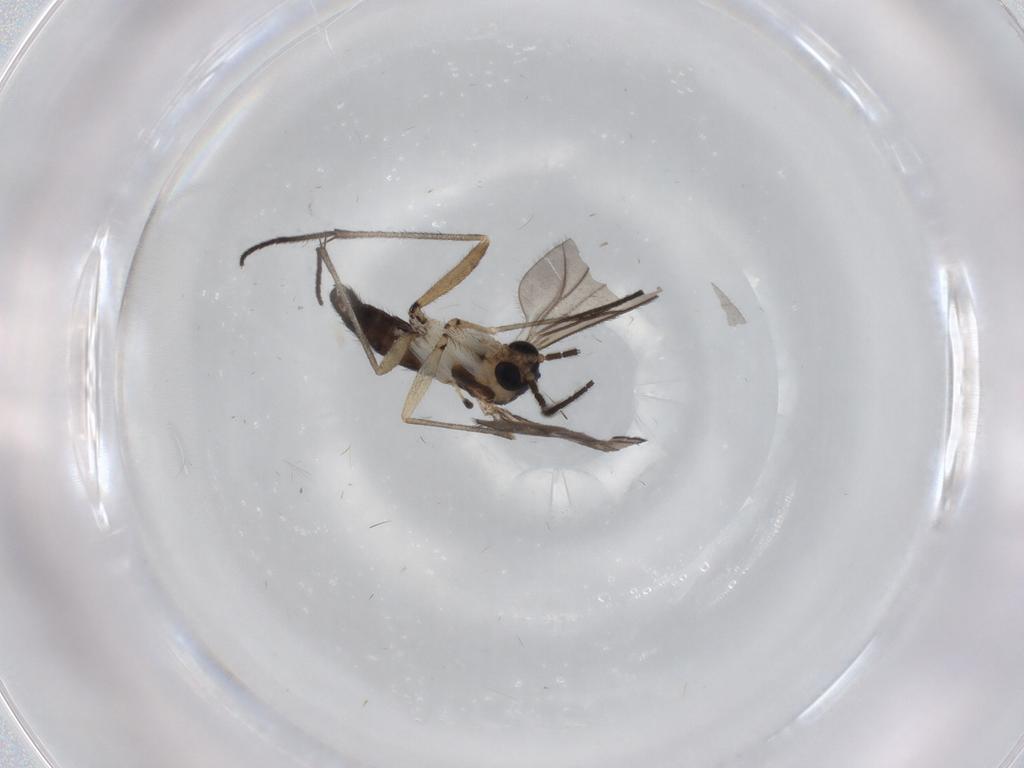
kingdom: Animalia
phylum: Arthropoda
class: Insecta
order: Diptera
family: Sciaridae
